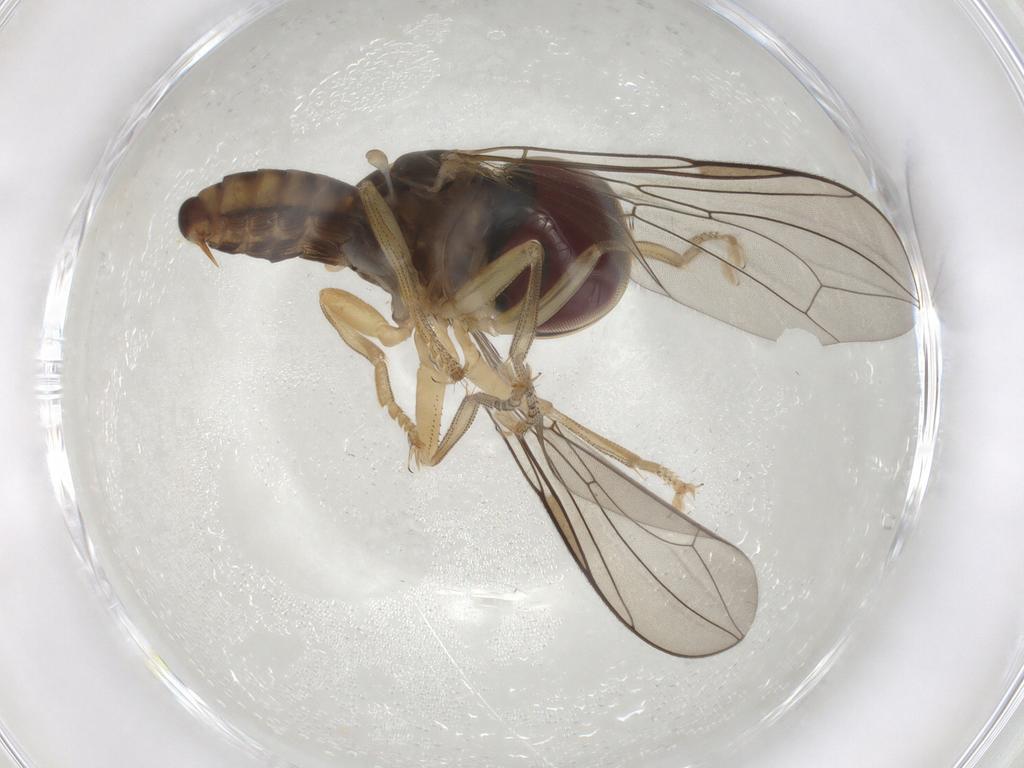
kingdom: Animalia
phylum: Arthropoda
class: Insecta
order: Diptera
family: Pipunculidae
